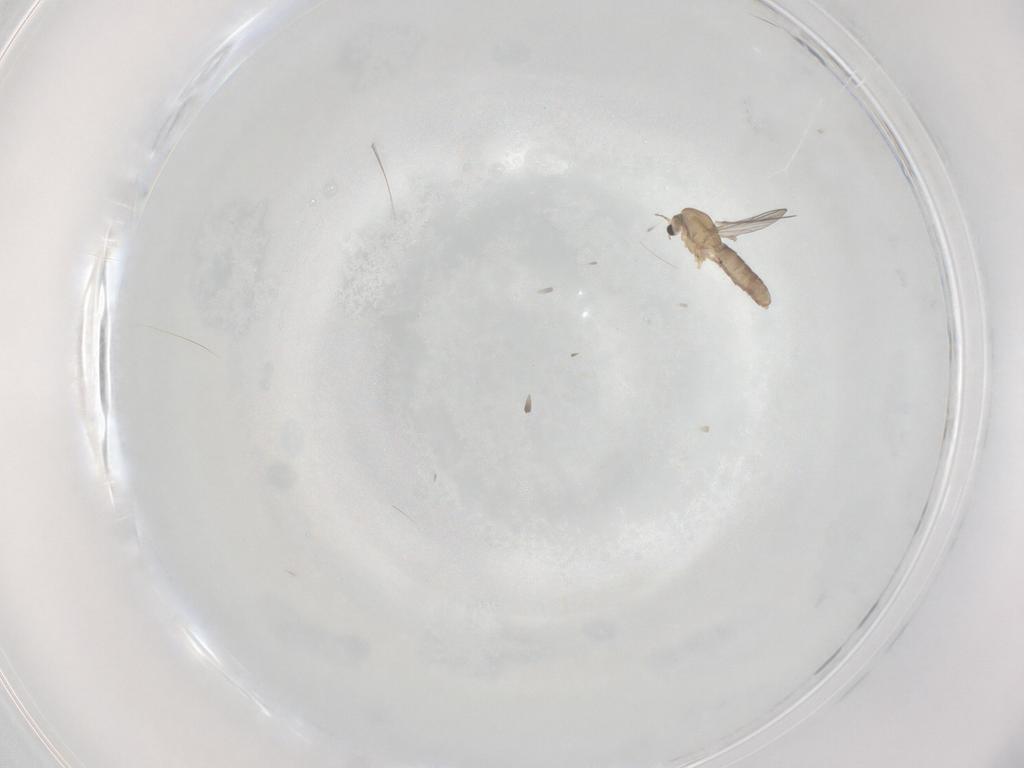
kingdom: Animalia
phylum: Arthropoda
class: Insecta
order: Diptera
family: Chironomidae
